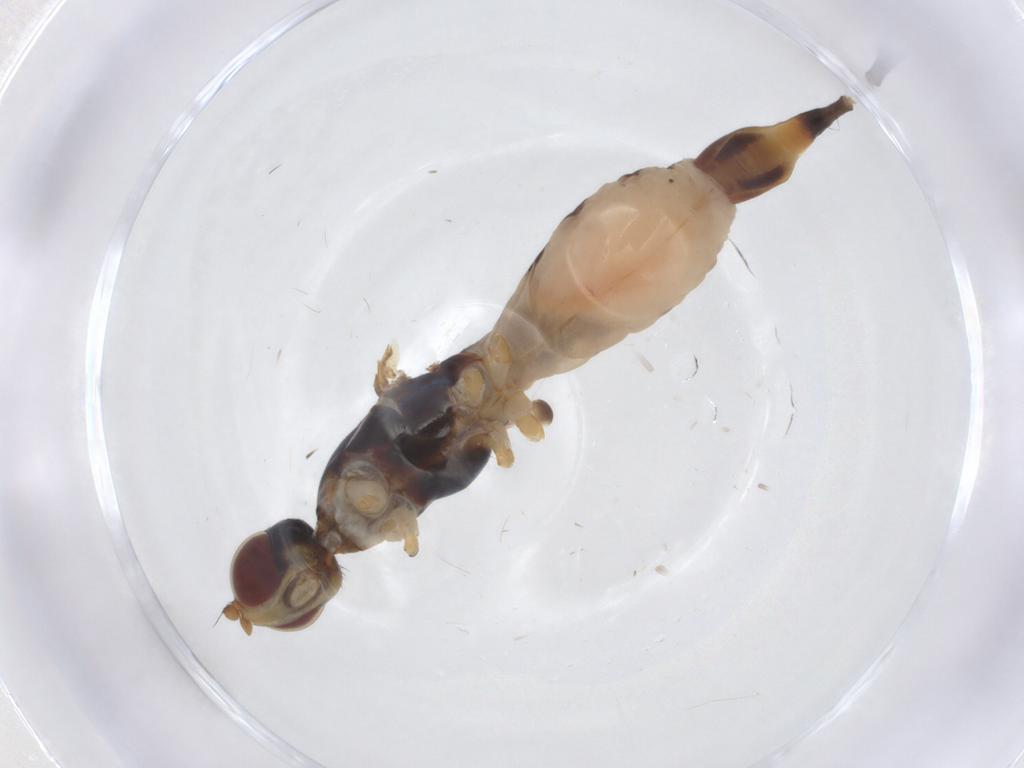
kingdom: Animalia
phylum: Arthropoda
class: Insecta
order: Diptera
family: Micropezidae
